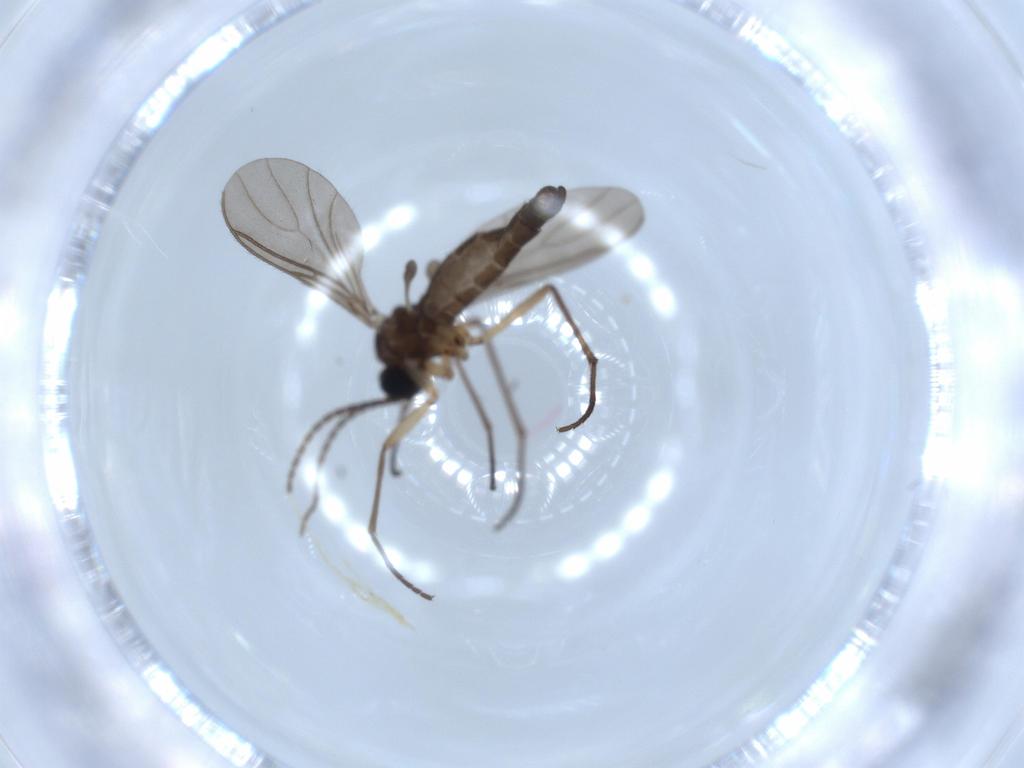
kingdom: Animalia
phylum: Arthropoda
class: Insecta
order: Diptera
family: Sciaridae
